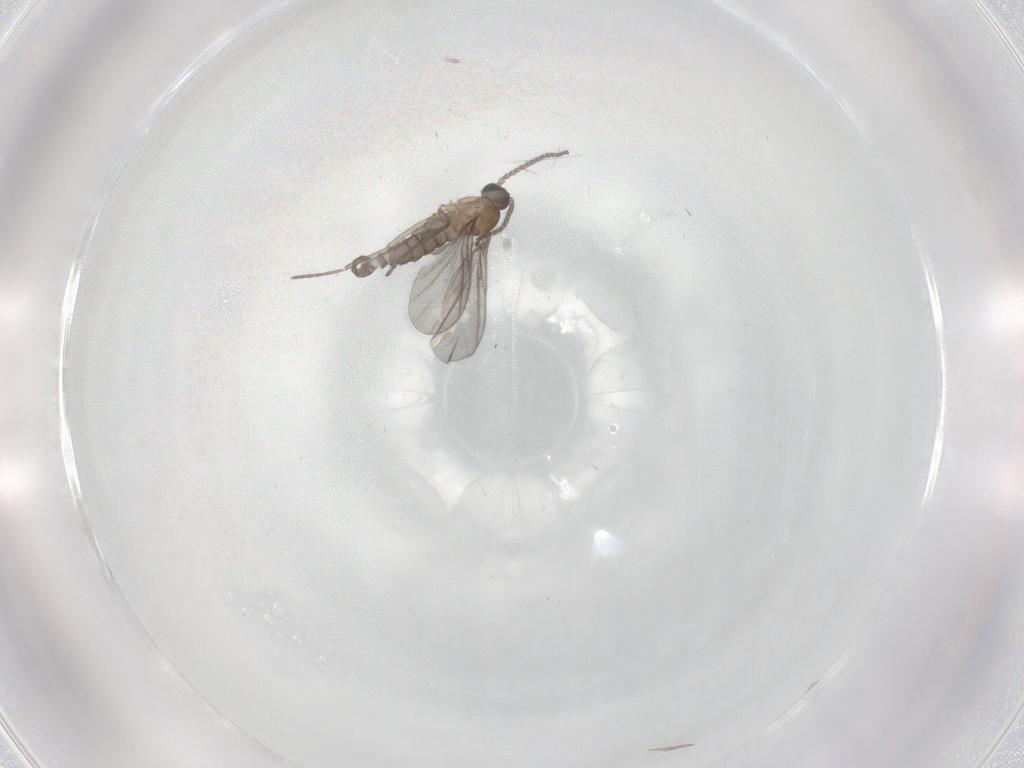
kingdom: Animalia
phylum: Arthropoda
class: Insecta
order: Diptera
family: Sciaridae
